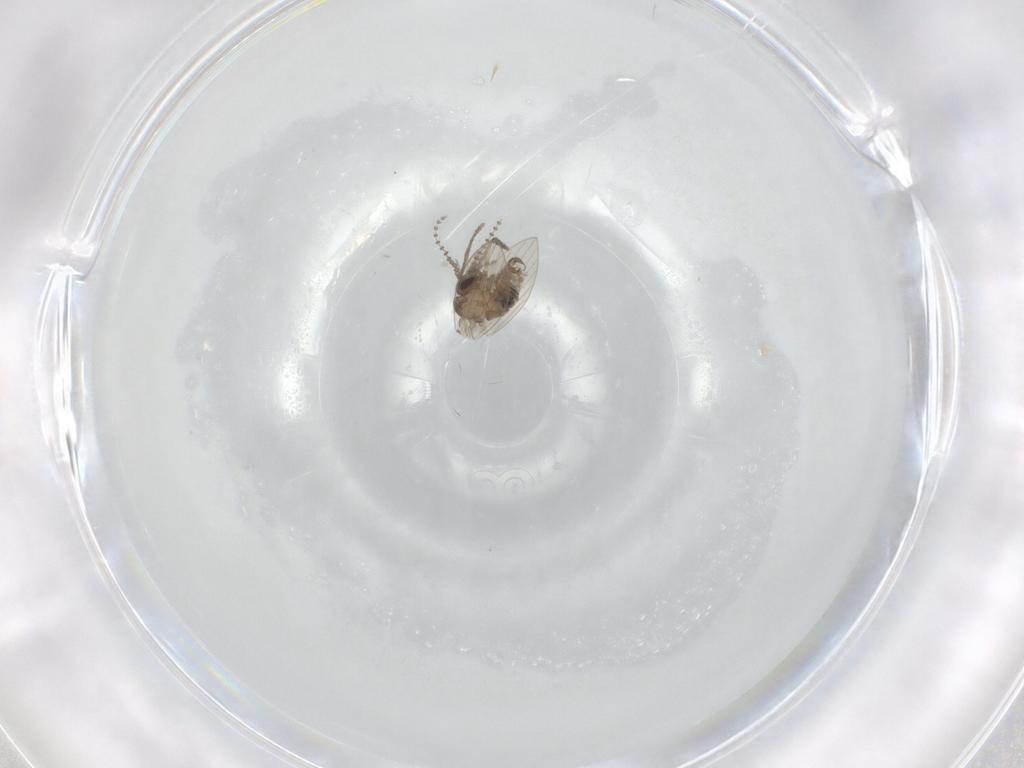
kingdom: Animalia
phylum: Arthropoda
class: Insecta
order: Diptera
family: Psychodidae
